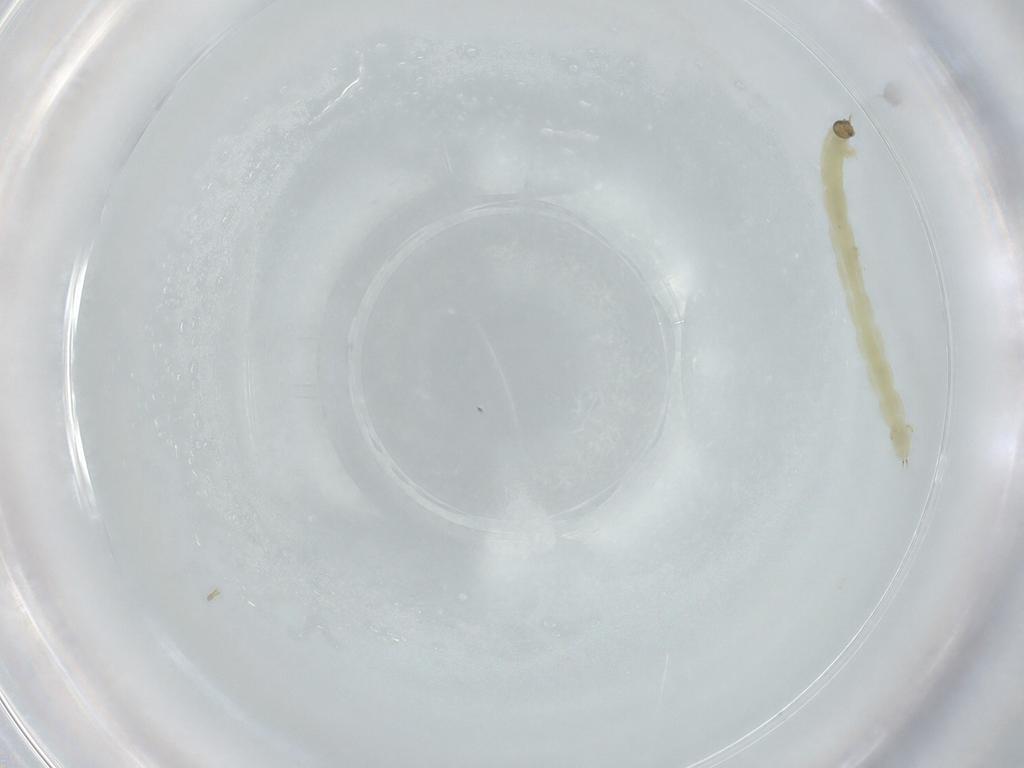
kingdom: Animalia
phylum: Arthropoda
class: Insecta
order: Diptera
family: Chironomidae
